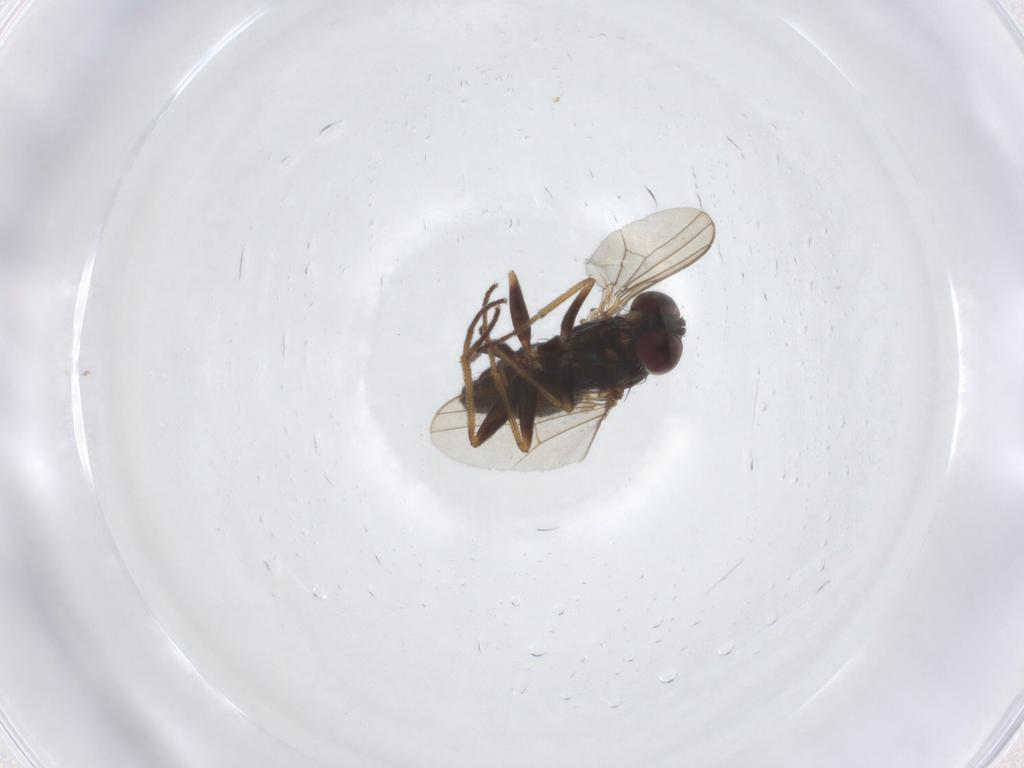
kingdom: Animalia
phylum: Arthropoda
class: Insecta
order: Diptera
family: Dolichopodidae
